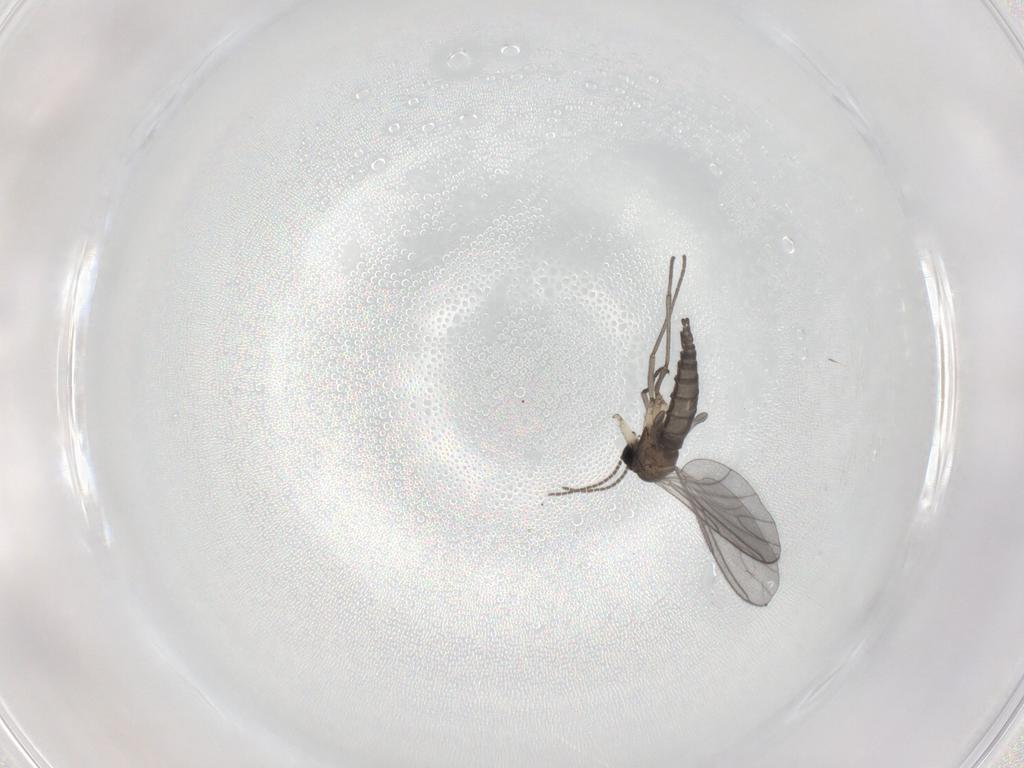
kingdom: Animalia
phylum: Arthropoda
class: Insecta
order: Diptera
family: Sciaridae
